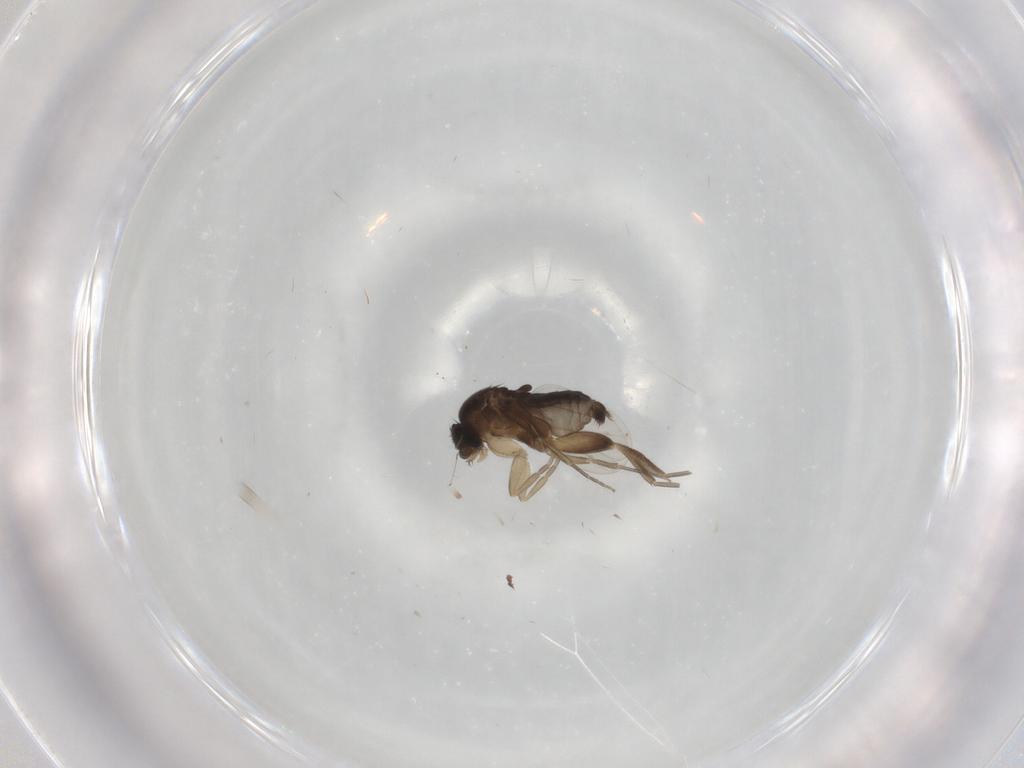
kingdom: Animalia
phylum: Arthropoda
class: Insecta
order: Diptera
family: Phoridae
